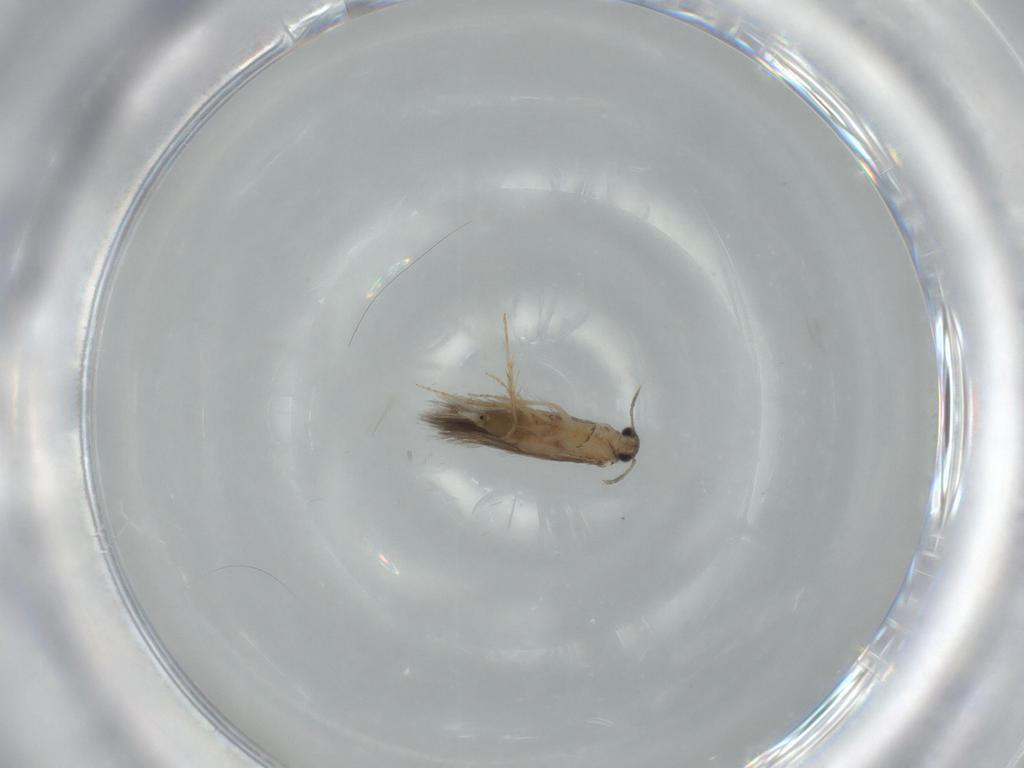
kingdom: Animalia
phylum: Arthropoda
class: Insecta
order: Trichoptera
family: Hydroptilidae
